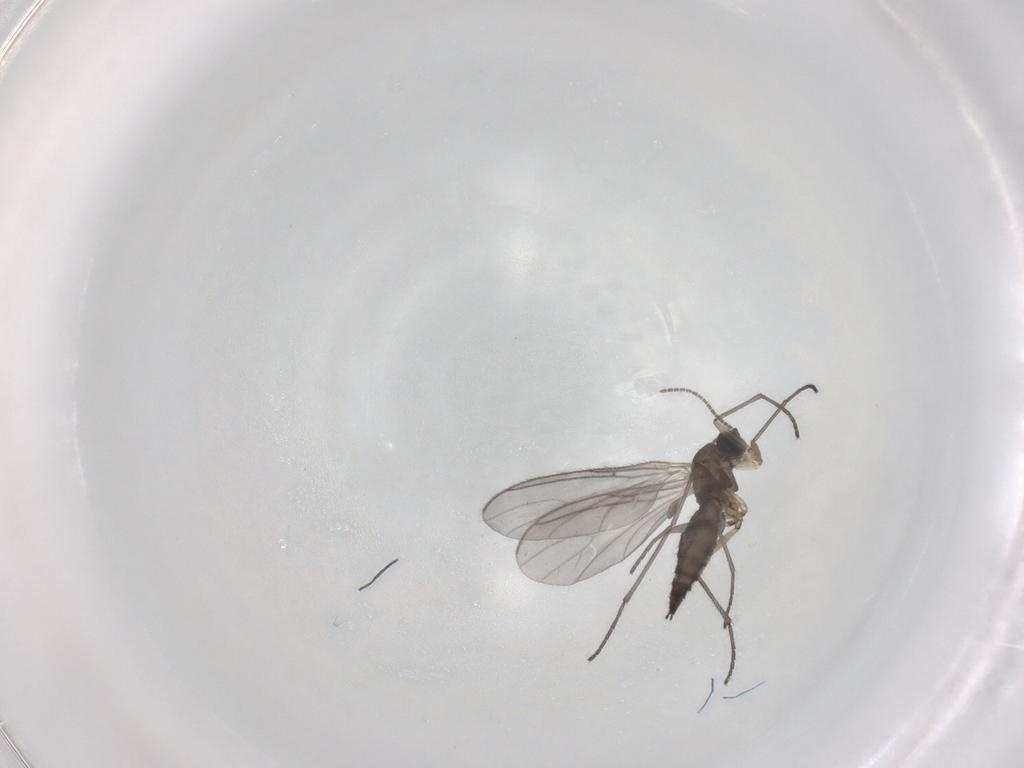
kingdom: Animalia
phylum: Arthropoda
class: Insecta
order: Diptera
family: Sciaridae
